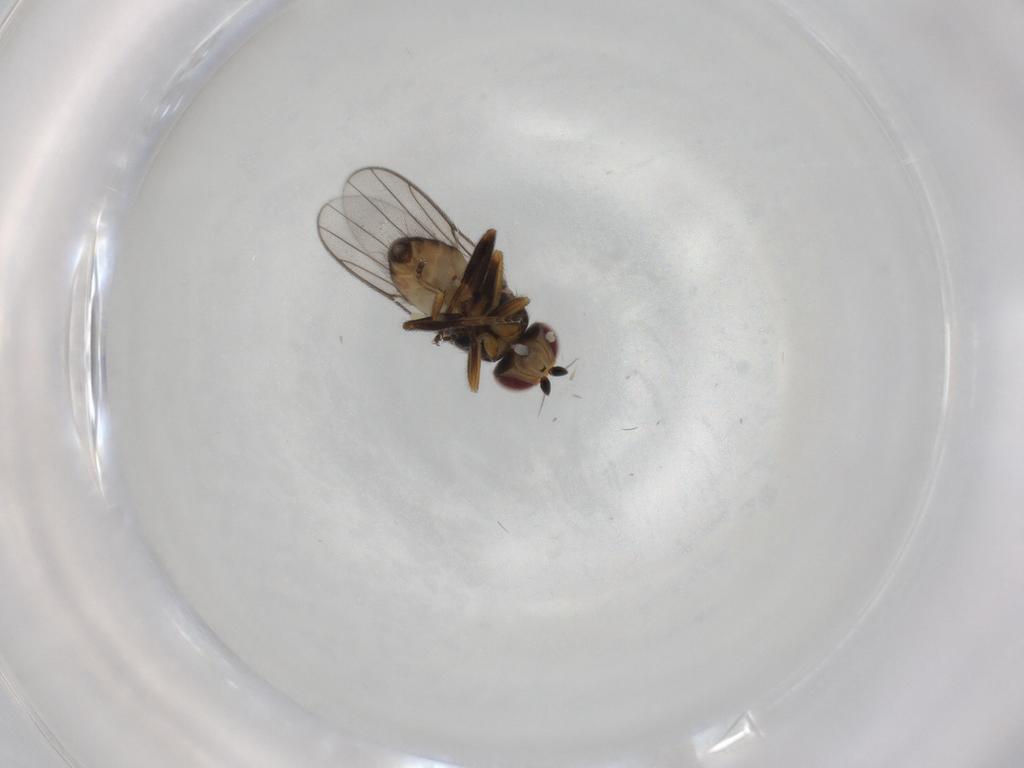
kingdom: Animalia
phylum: Arthropoda
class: Insecta
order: Diptera
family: Chloropidae
